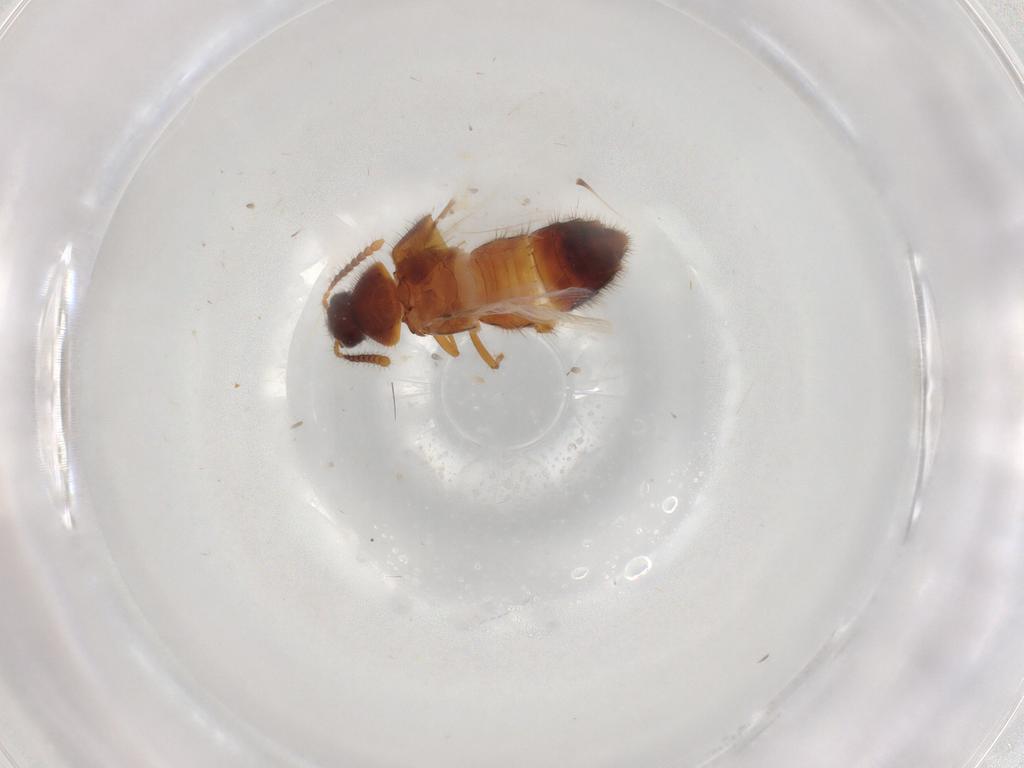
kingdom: Animalia
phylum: Arthropoda
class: Insecta
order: Coleoptera
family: Staphylinidae
